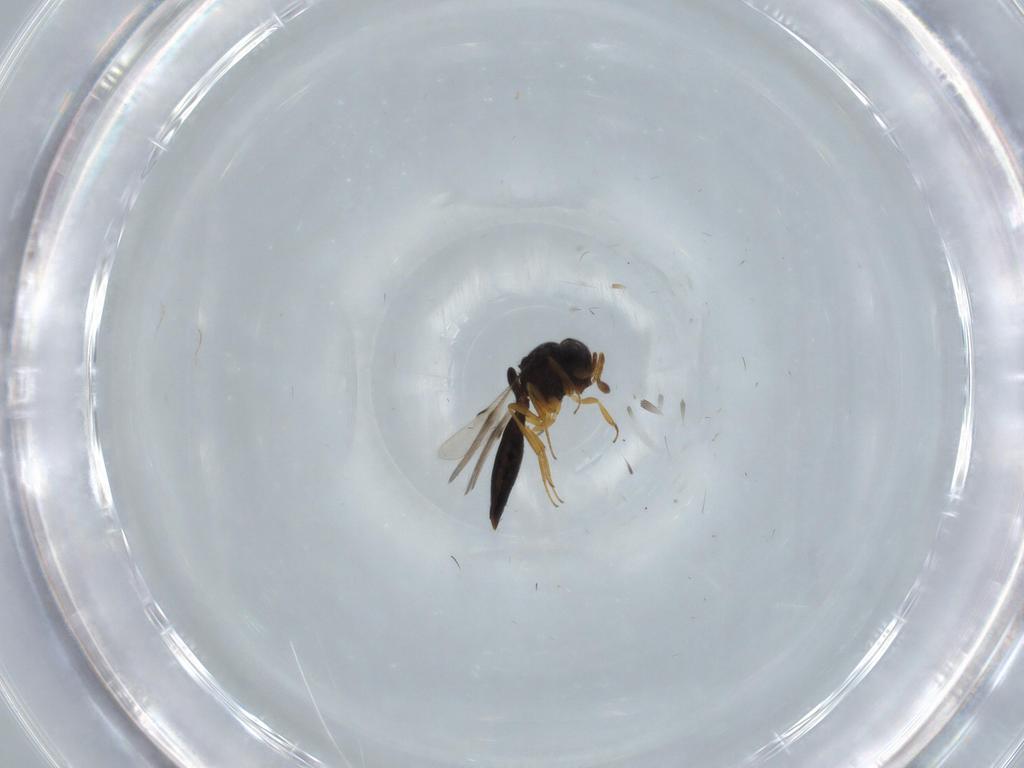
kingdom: Animalia
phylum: Arthropoda
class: Insecta
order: Hymenoptera
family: Scelionidae
